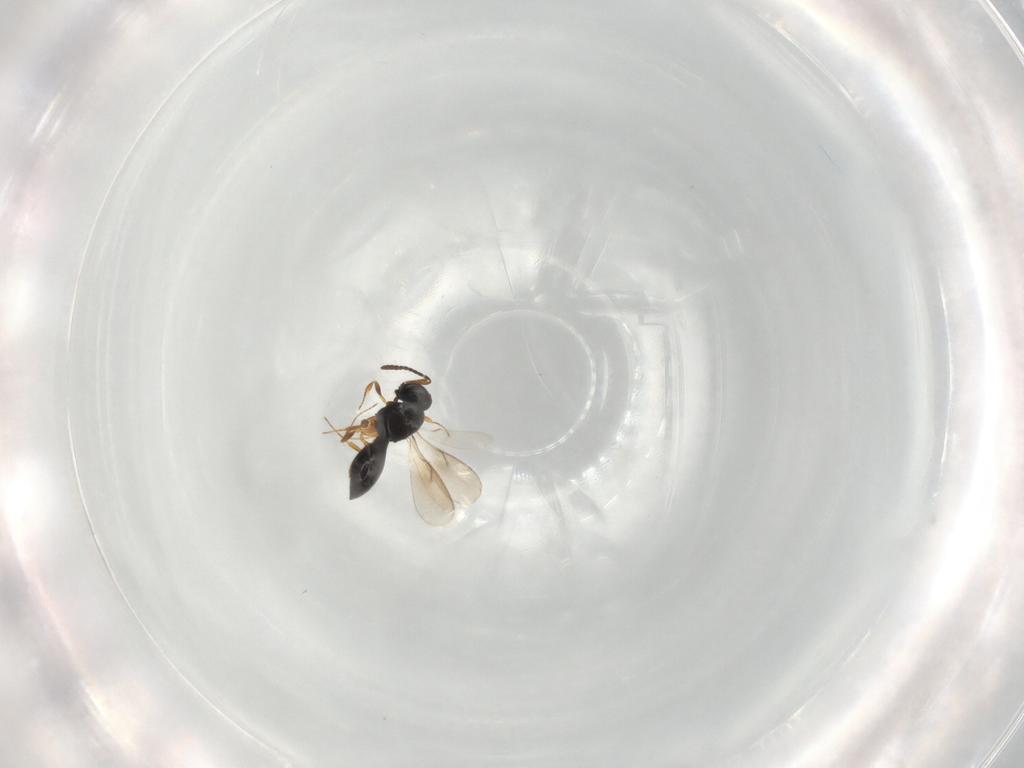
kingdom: Animalia
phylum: Arthropoda
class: Insecta
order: Hymenoptera
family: Scelionidae
